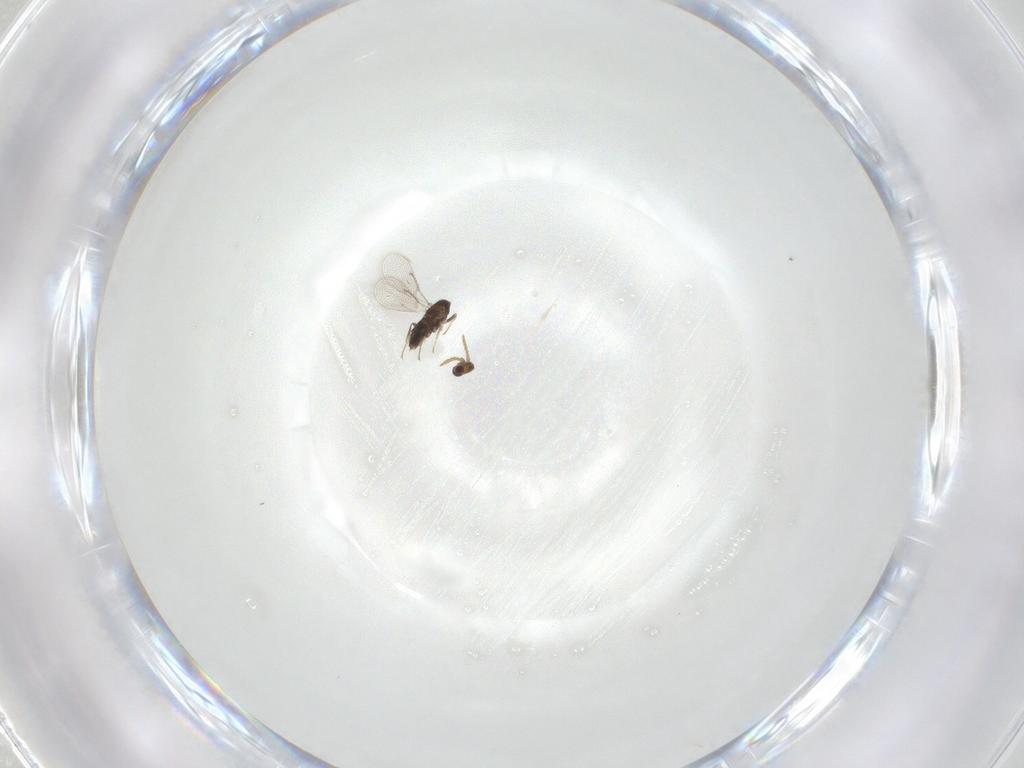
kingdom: Animalia
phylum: Arthropoda
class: Insecta
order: Hymenoptera
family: Aphelinidae
